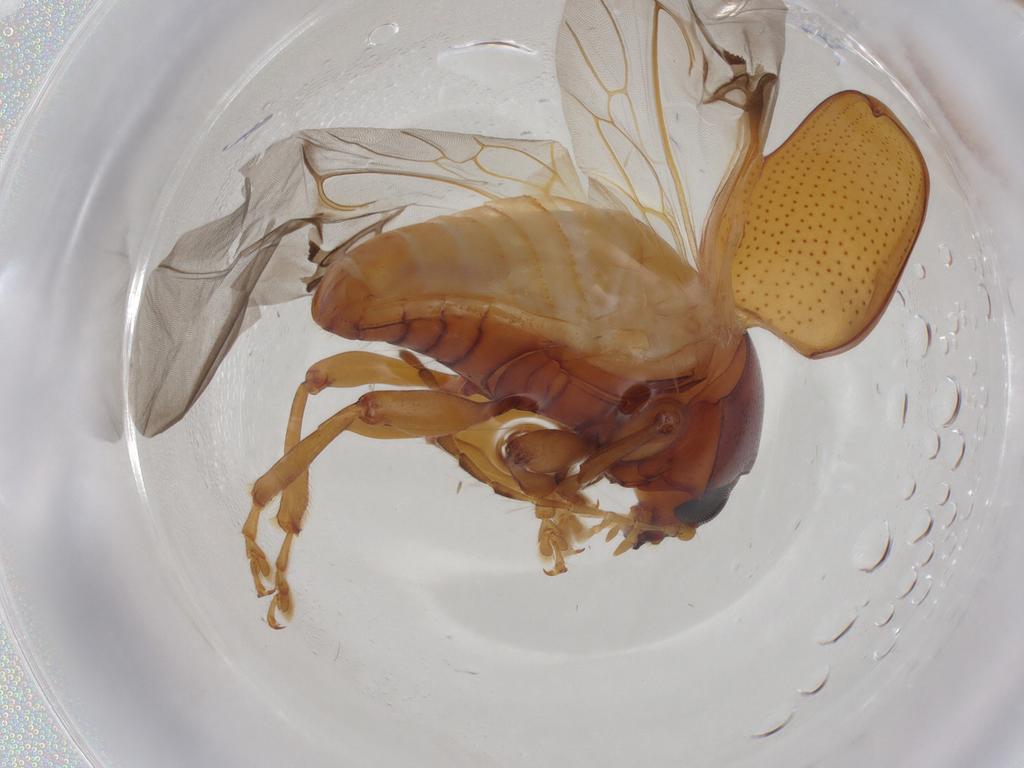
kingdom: Animalia
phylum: Arthropoda
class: Insecta
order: Coleoptera
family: Chrysomelidae
